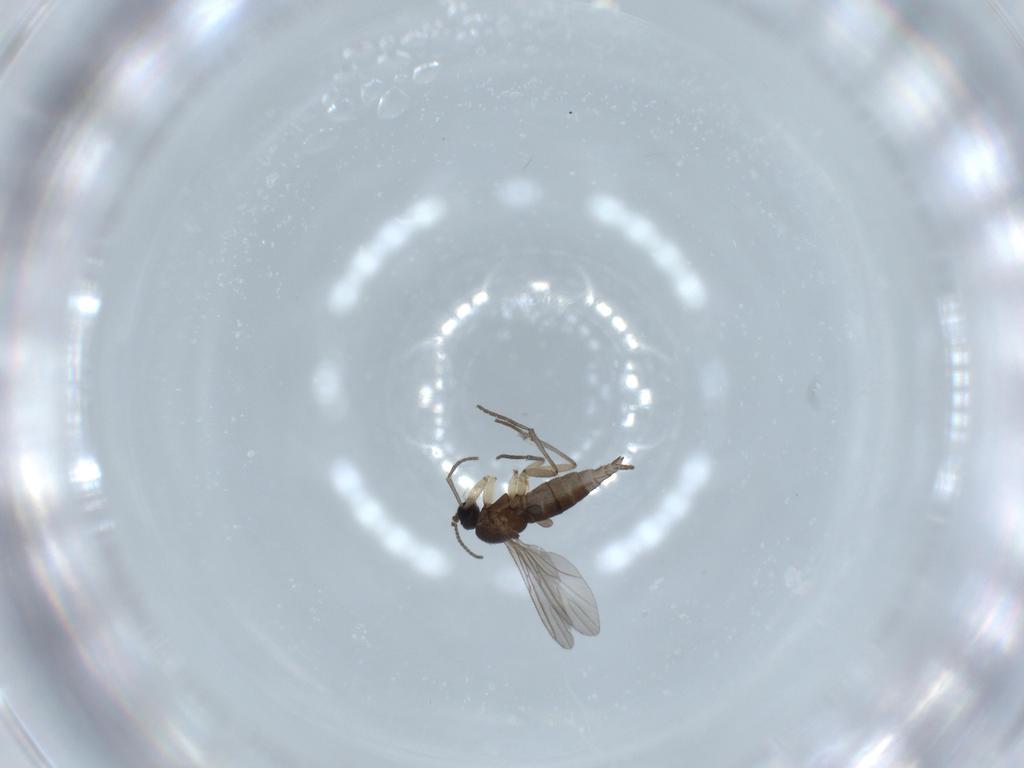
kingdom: Animalia
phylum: Arthropoda
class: Insecta
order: Diptera
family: Sciaridae
